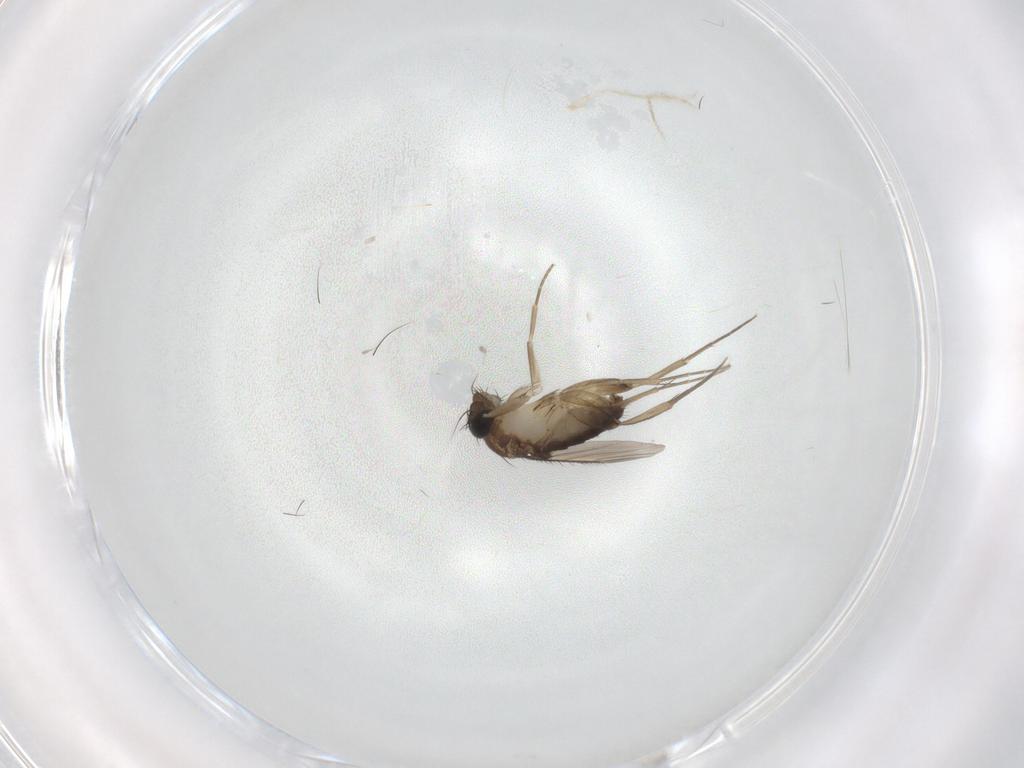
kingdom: Animalia
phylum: Arthropoda
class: Insecta
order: Diptera
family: Phoridae
